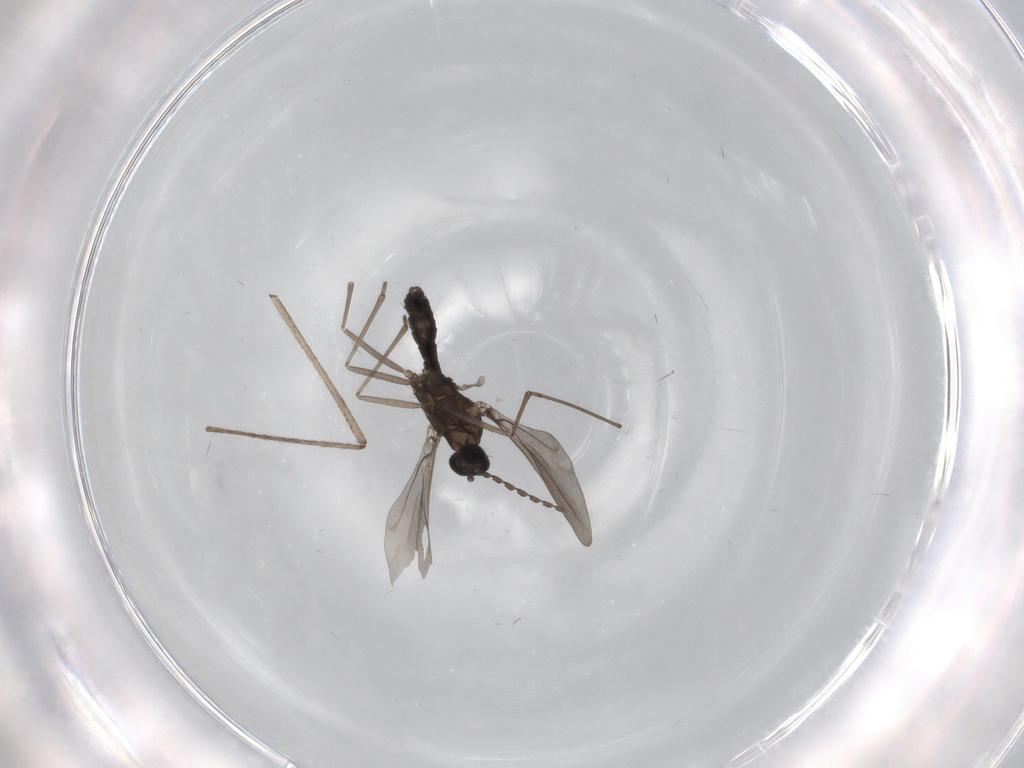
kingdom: Animalia
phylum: Arthropoda
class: Insecta
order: Diptera
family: Cecidomyiidae
